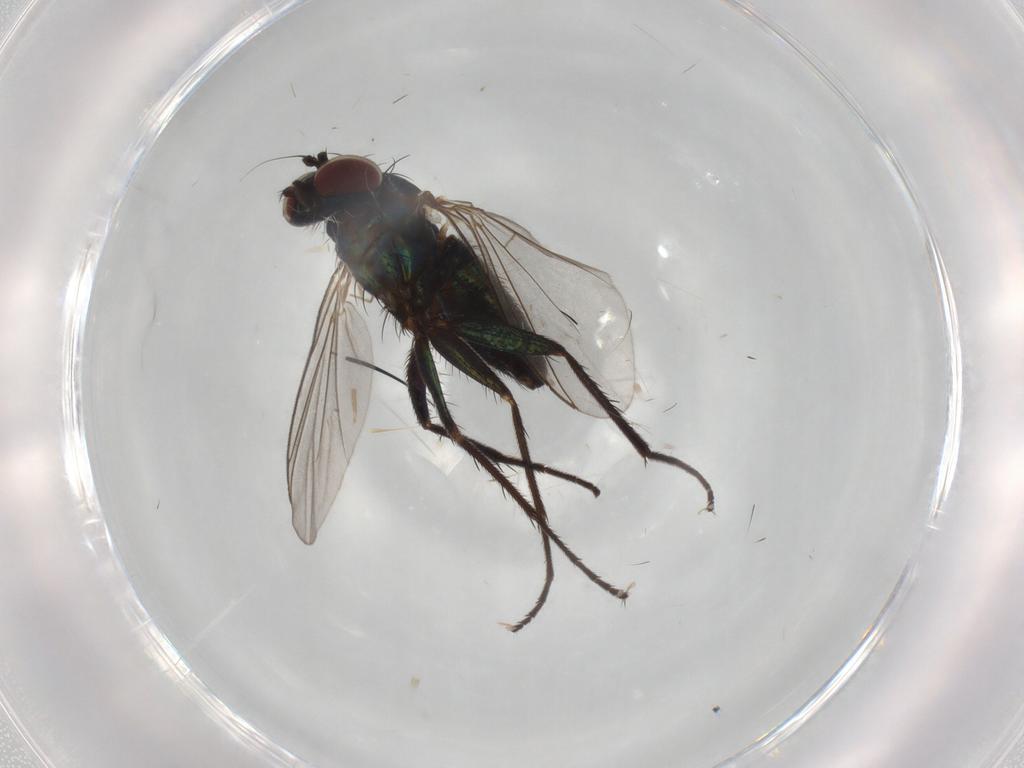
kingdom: Animalia
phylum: Arthropoda
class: Insecta
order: Diptera
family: Dolichopodidae
